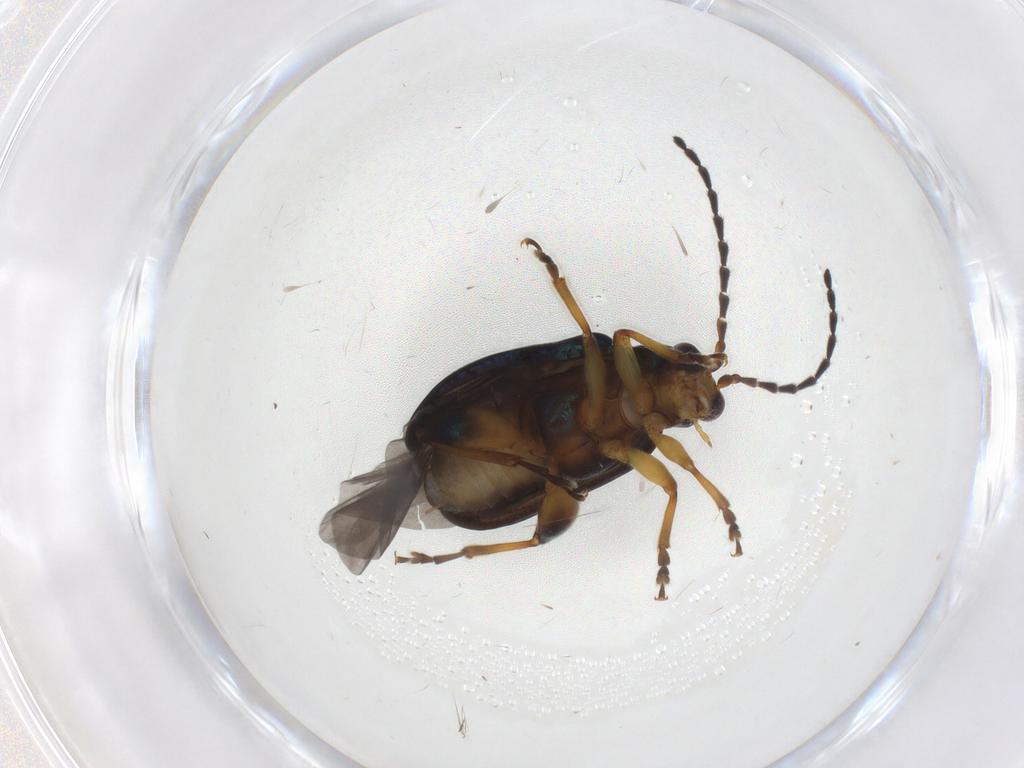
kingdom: Animalia
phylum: Arthropoda
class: Insecta
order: Coleoptera
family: Chrysomelidae
